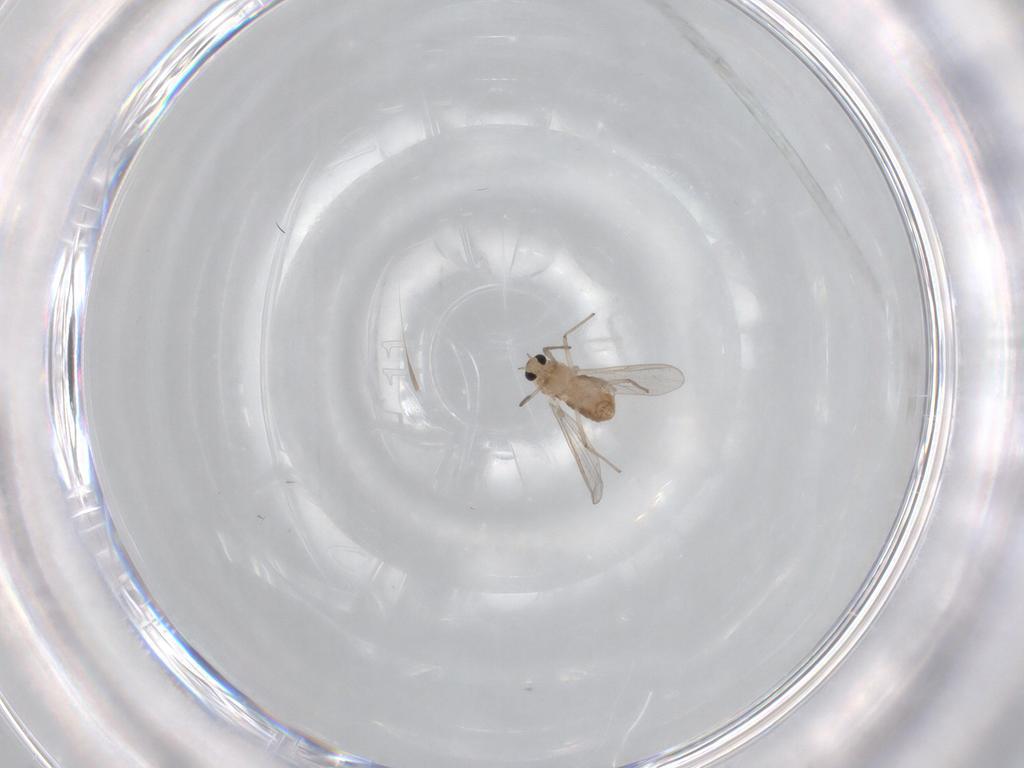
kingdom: Animalia
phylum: Arthropoda
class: Insecta
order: Diptera
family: Chironomidae
